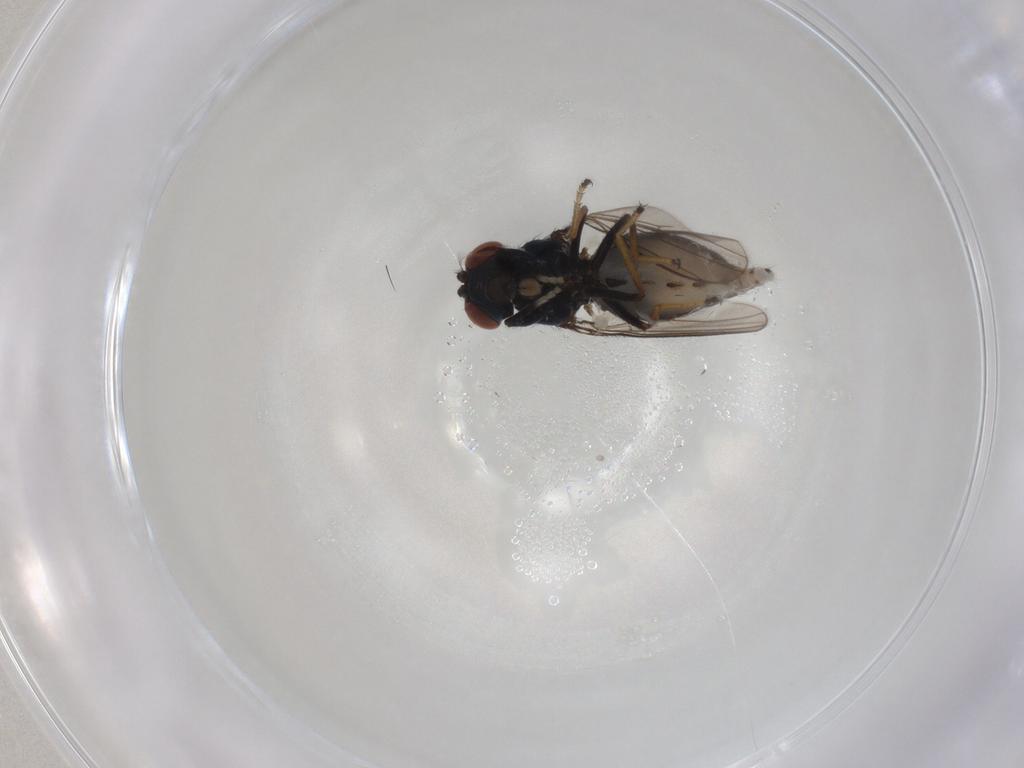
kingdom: Animalia
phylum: Arthropoda
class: Insecta
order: Diptera
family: Ephydridae
